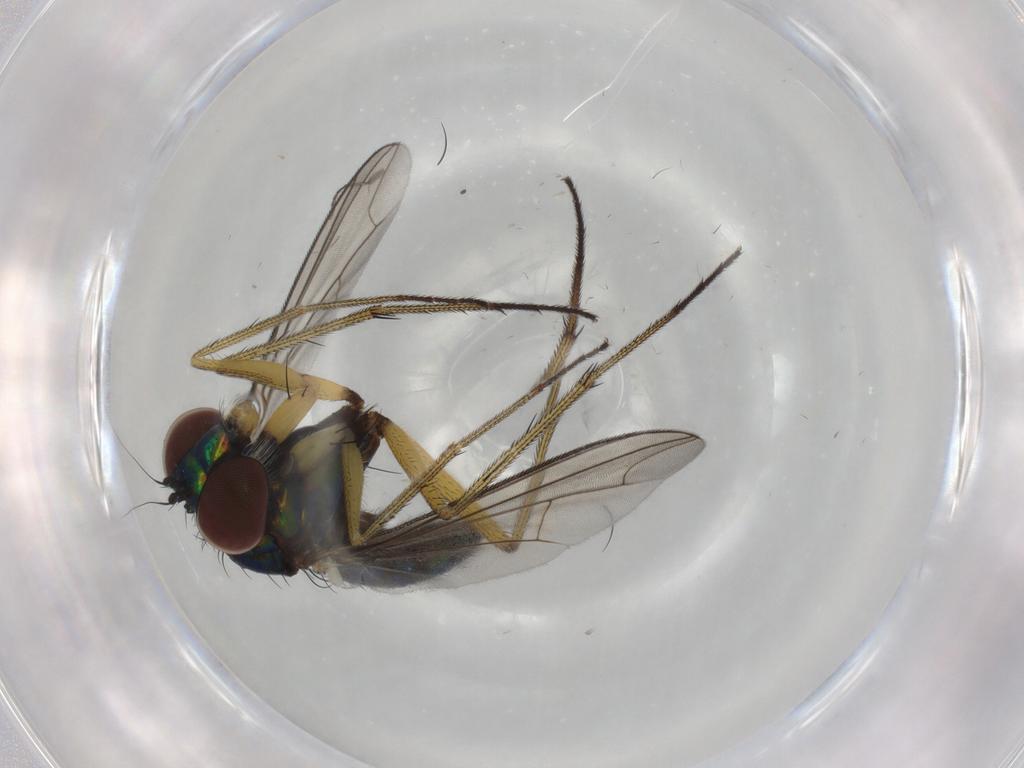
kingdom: Animalia
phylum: Arthropoda
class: Insecta
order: Diptera
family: Dolichopodidae
